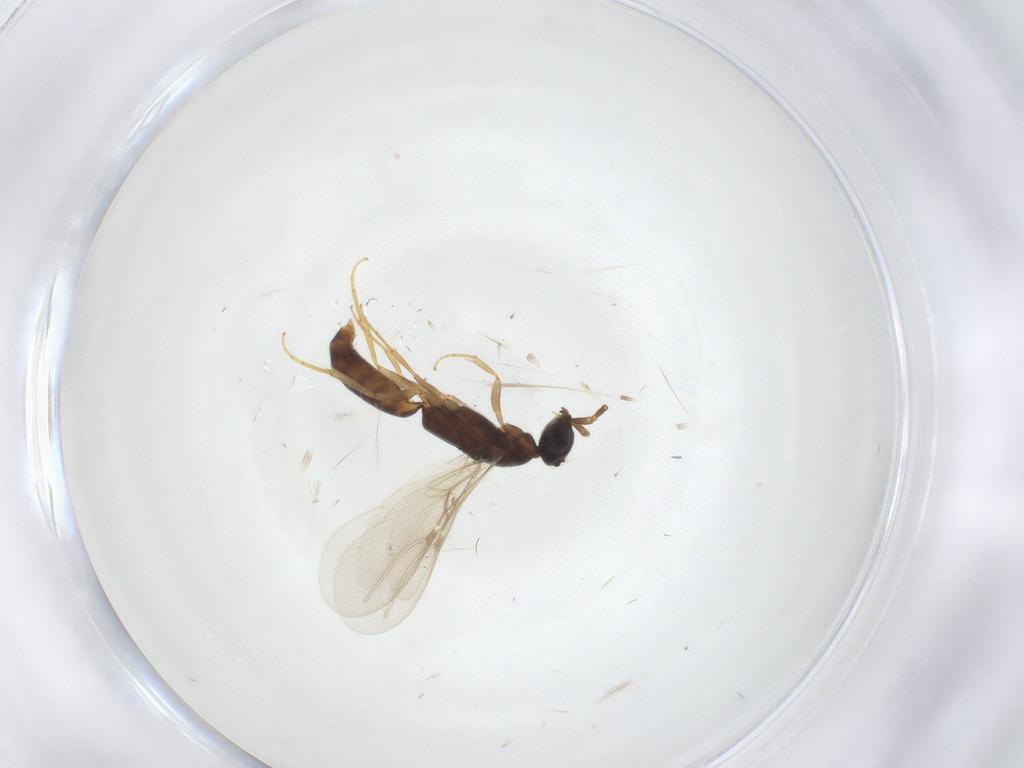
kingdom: Animalia
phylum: Arthropoda
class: Insecta
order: Hymenoptera
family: Bethylidae
